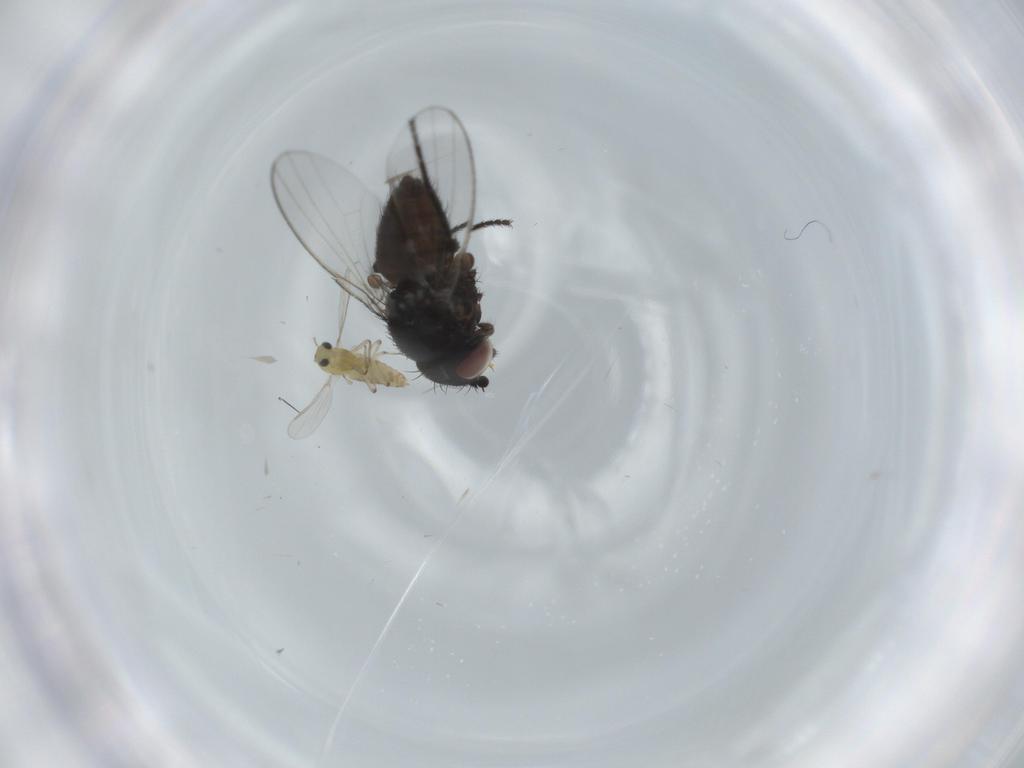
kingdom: Animalia
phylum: Arthropoda
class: Insecta
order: Diptera
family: Chironomidae
